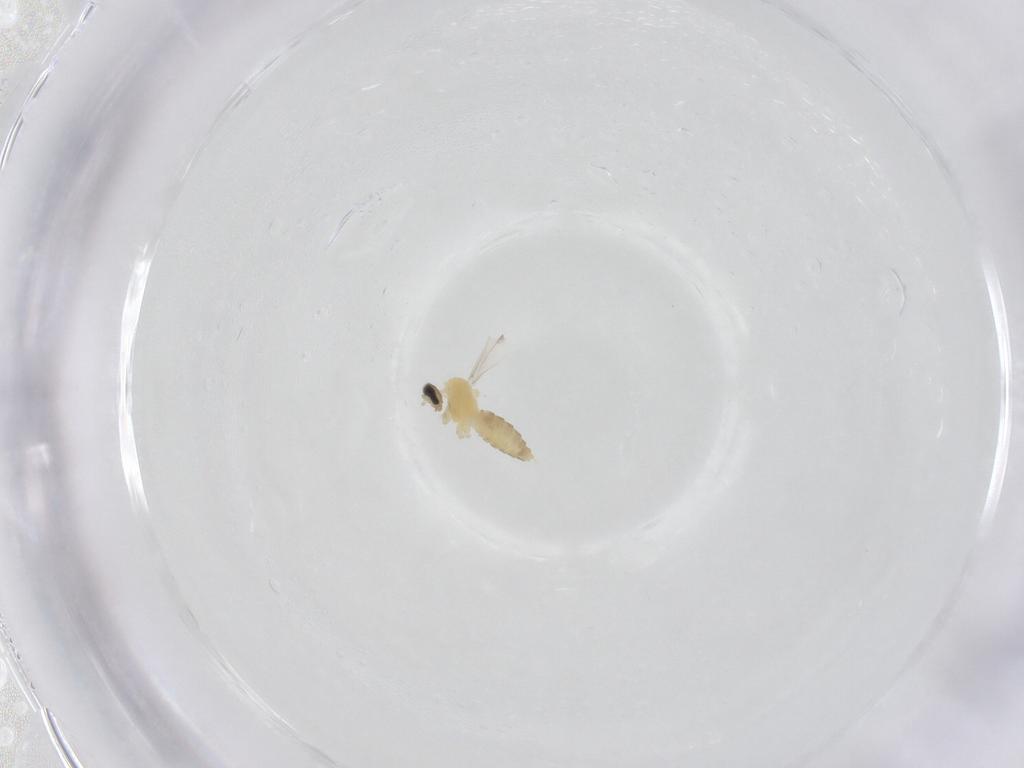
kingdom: Animalia
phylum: Arthropoda
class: Insecta
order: Diptera
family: Cecidomyiidae
